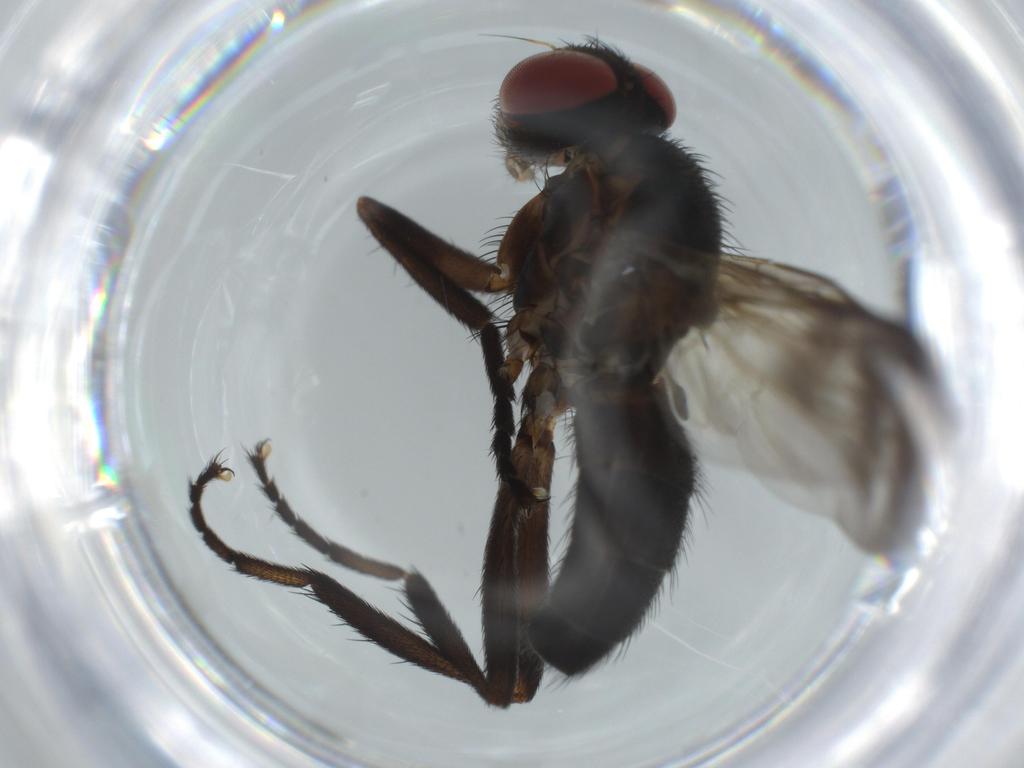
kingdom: Animalia
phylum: Arthropoda
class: Insecta
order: Diptera
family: Calliphoridae
